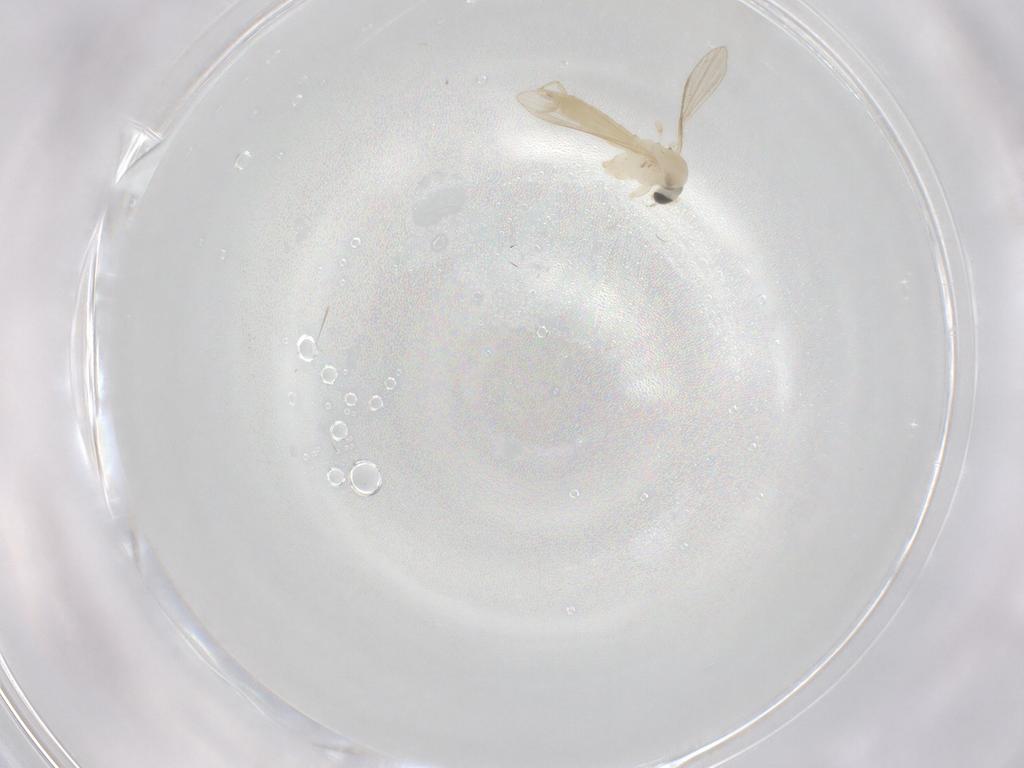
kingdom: Animalia
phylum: Arthropoda
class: Insecta
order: Diptera
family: Psychodidae
